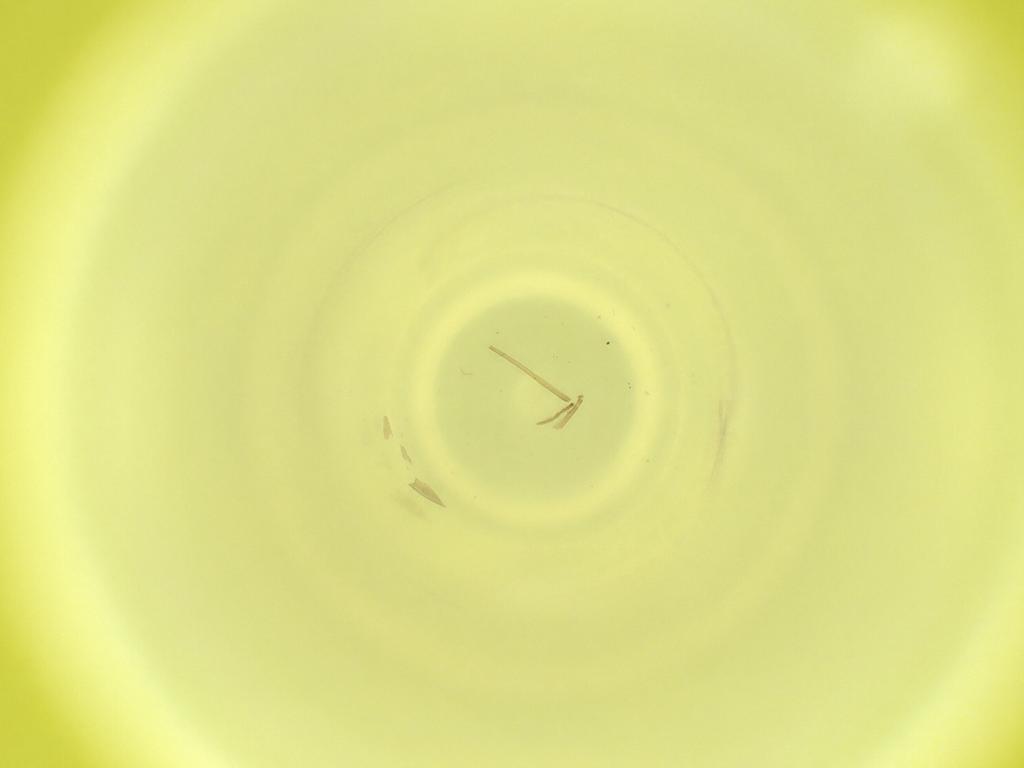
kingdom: Animalia
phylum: Arthropoda
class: Insecta
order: Diptera
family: Cecidomyiidae
